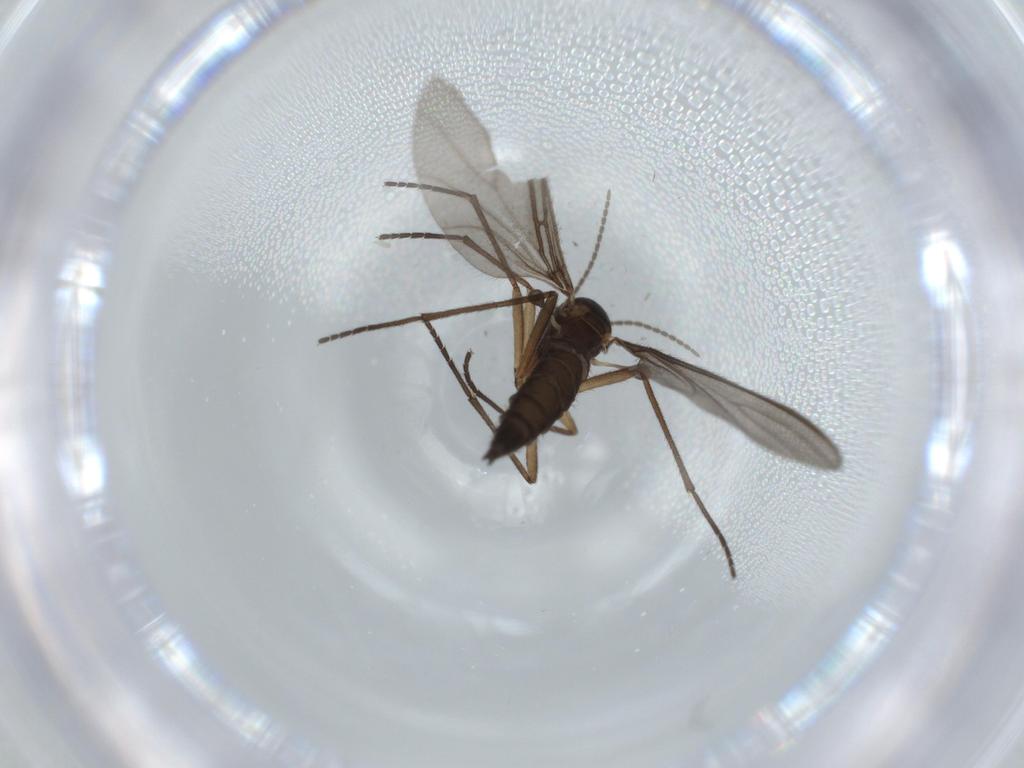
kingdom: Animalia
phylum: Arthropoda
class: Insecta
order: Diptera
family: Sciaridae
